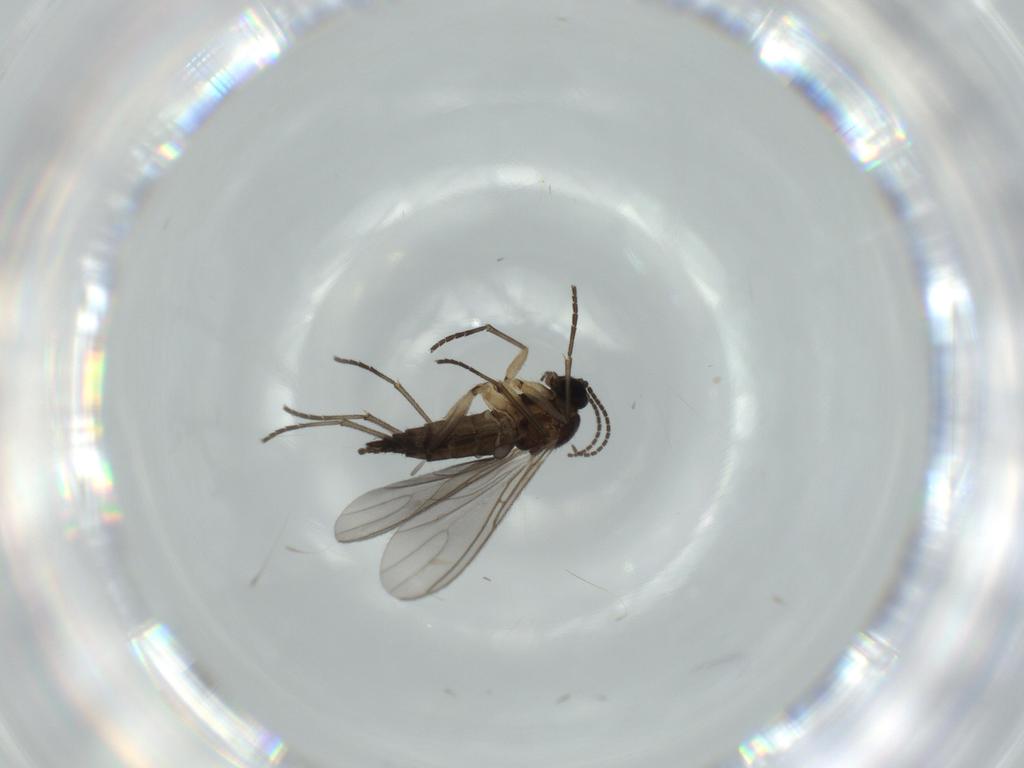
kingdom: Animalia
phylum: Arthropoda
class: Insecta
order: Diptera
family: Sciaridae
